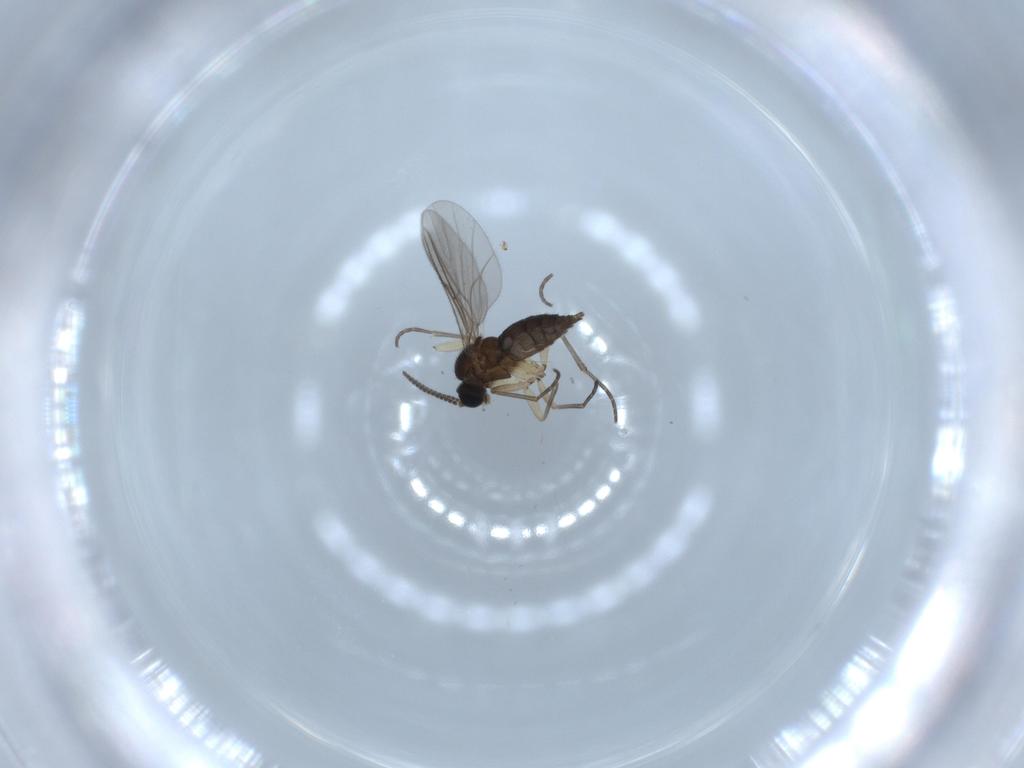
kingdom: Animalia
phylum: Arthropoda
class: Insecta
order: Diptera
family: Sciaridae
